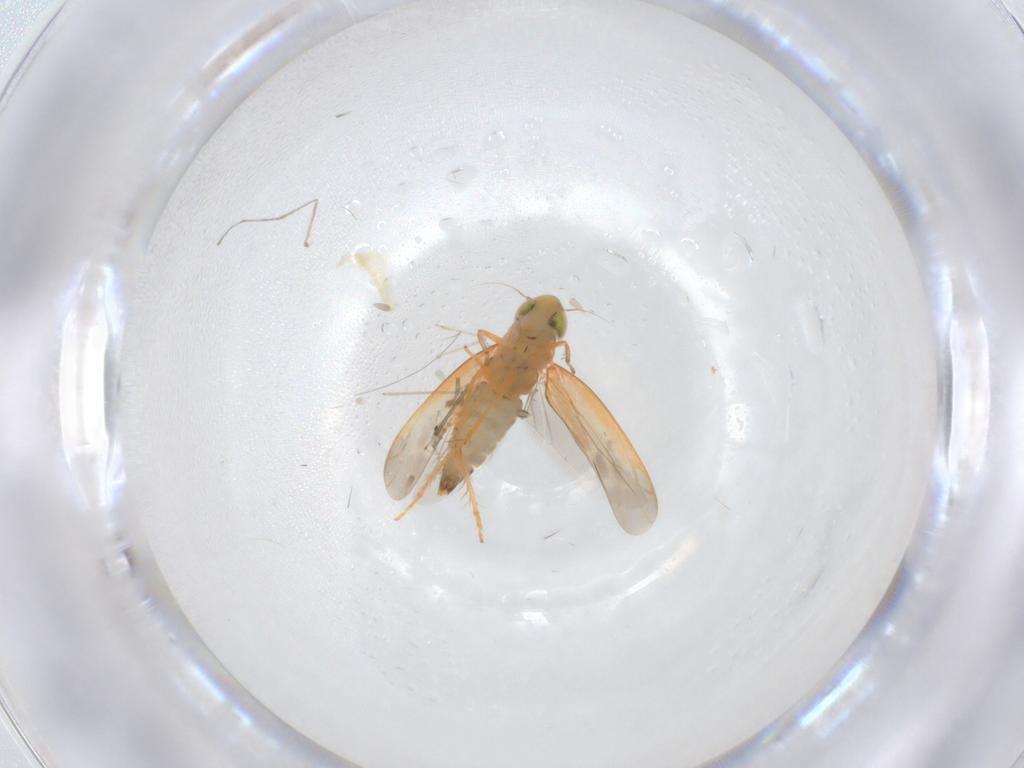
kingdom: Animalia
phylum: Arthropoda
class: Insecta
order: Hemiptera
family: Cicadellidae
